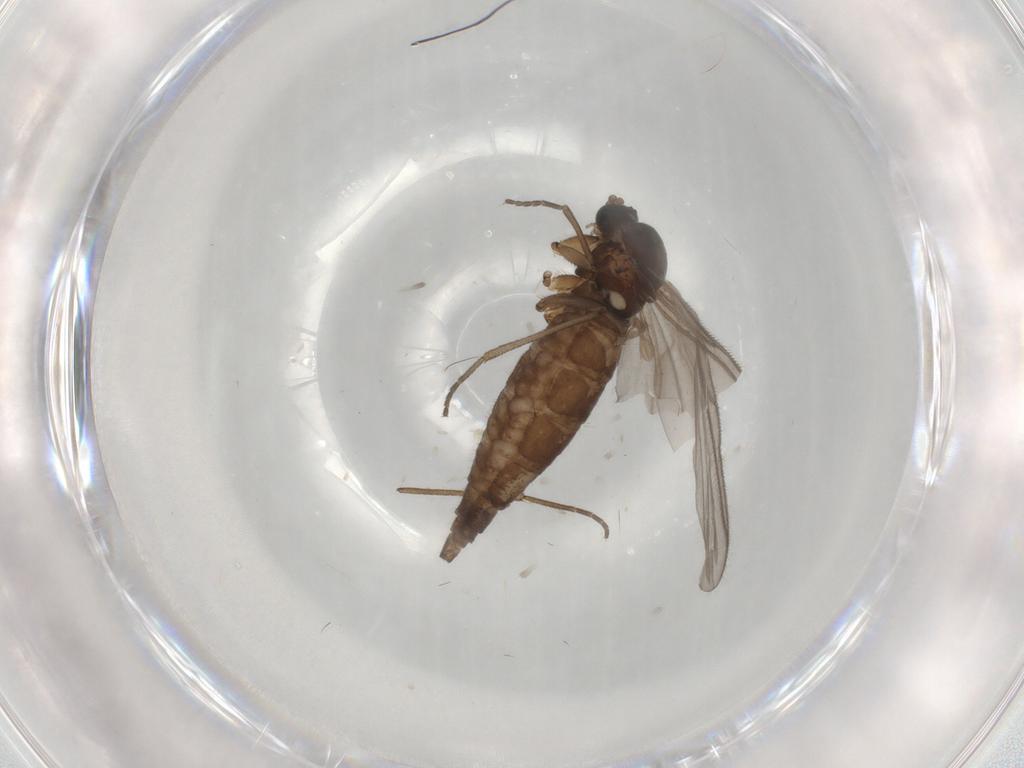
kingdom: Animalia
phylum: Arthropoda
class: Insecta
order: Diptera
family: Sciaridae
